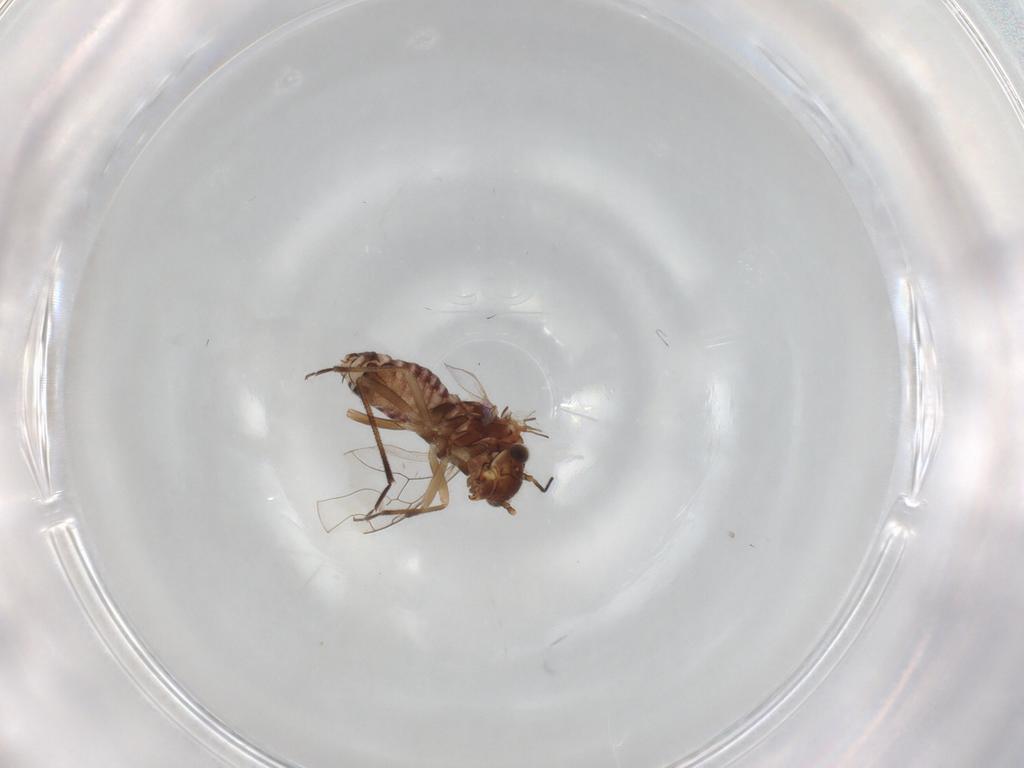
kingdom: Animalia
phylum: Arthropoda
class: Insecta
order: Psocodea
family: Lachesillidae
